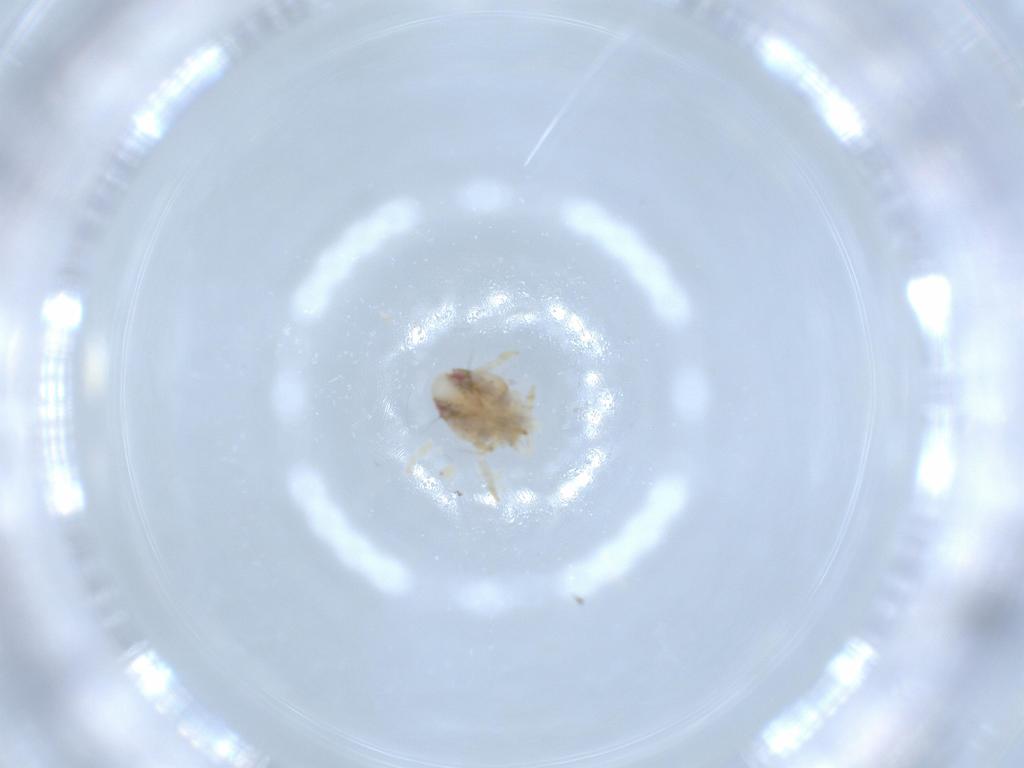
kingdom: Animalia
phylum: Arthropoda
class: Insecta
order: Hemiptera
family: Acanaloniidae
